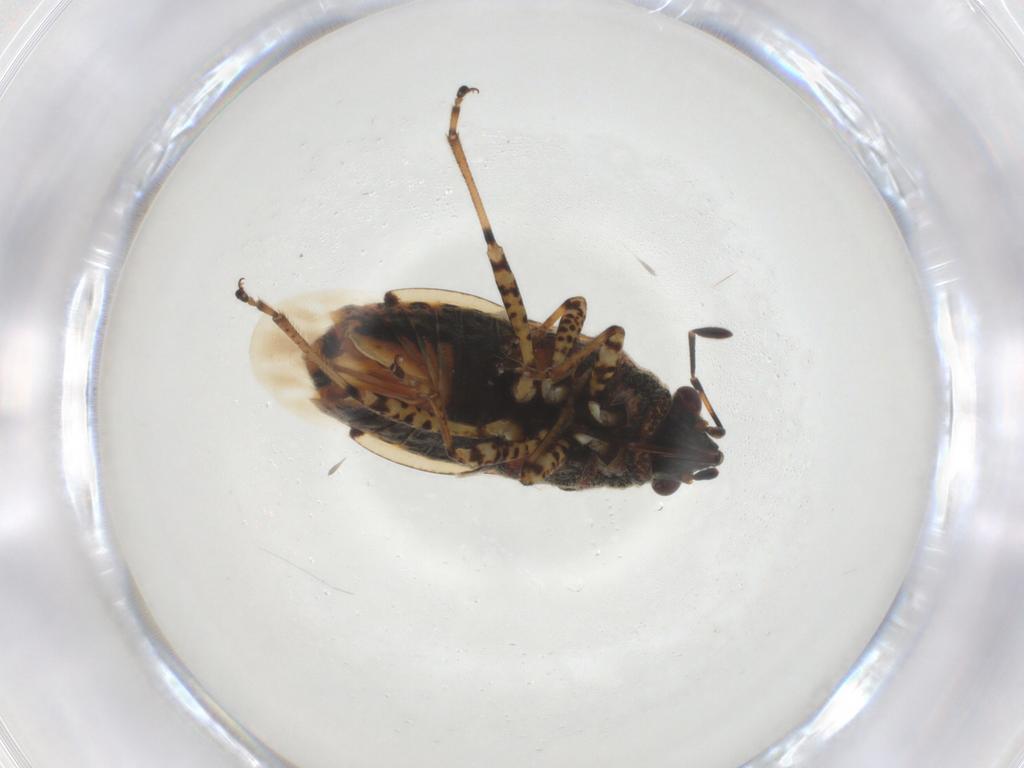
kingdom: Animalia
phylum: Arthropoda
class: Insecta
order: Hemiptera
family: Lygaeidae
